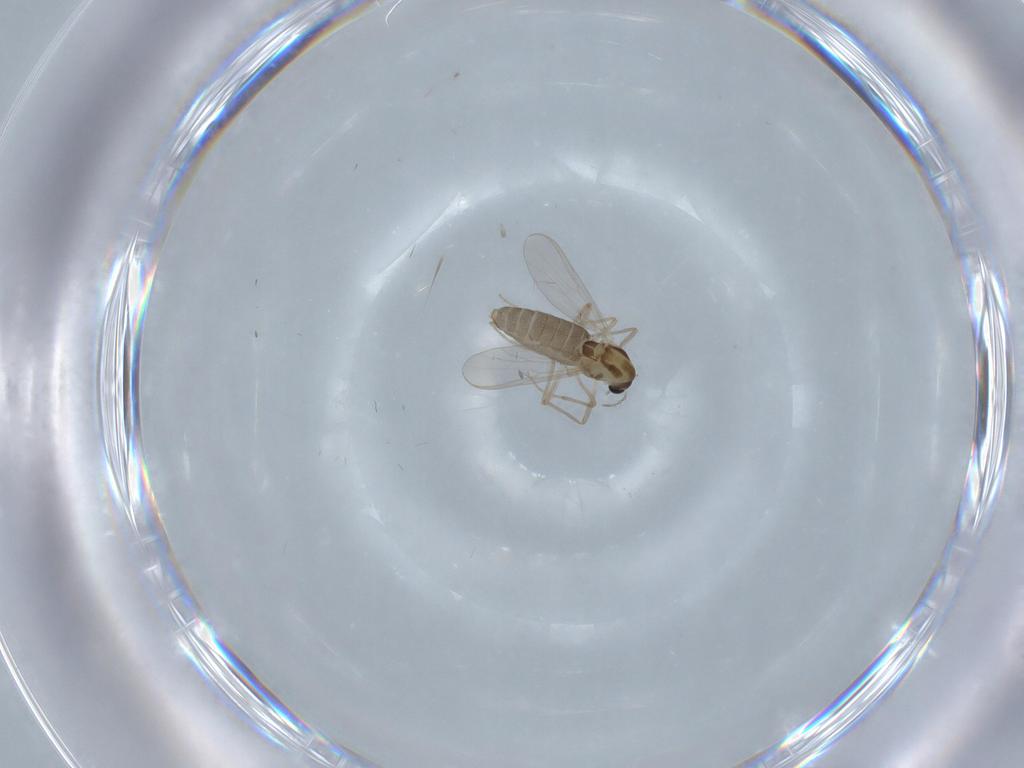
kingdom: Animalia
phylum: Arthropoda
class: Insecta
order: Diptera
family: Chironomidae
